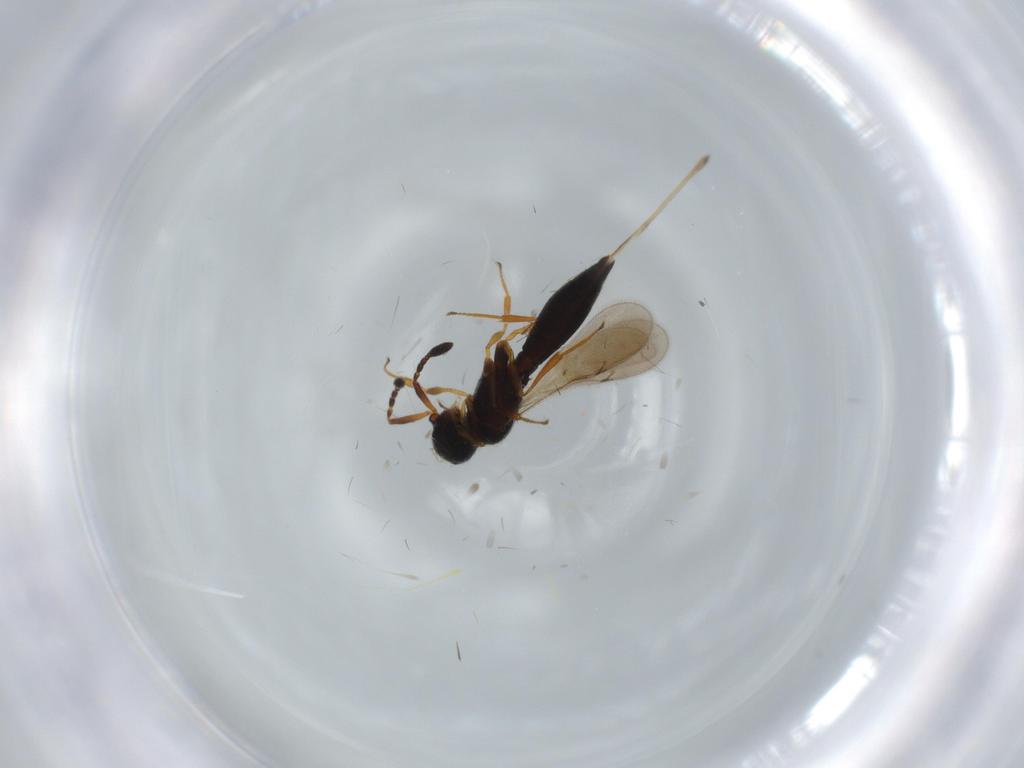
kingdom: Animalia
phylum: Arthropoda
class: Insecta
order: Hymenoptera
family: Scelionidae
